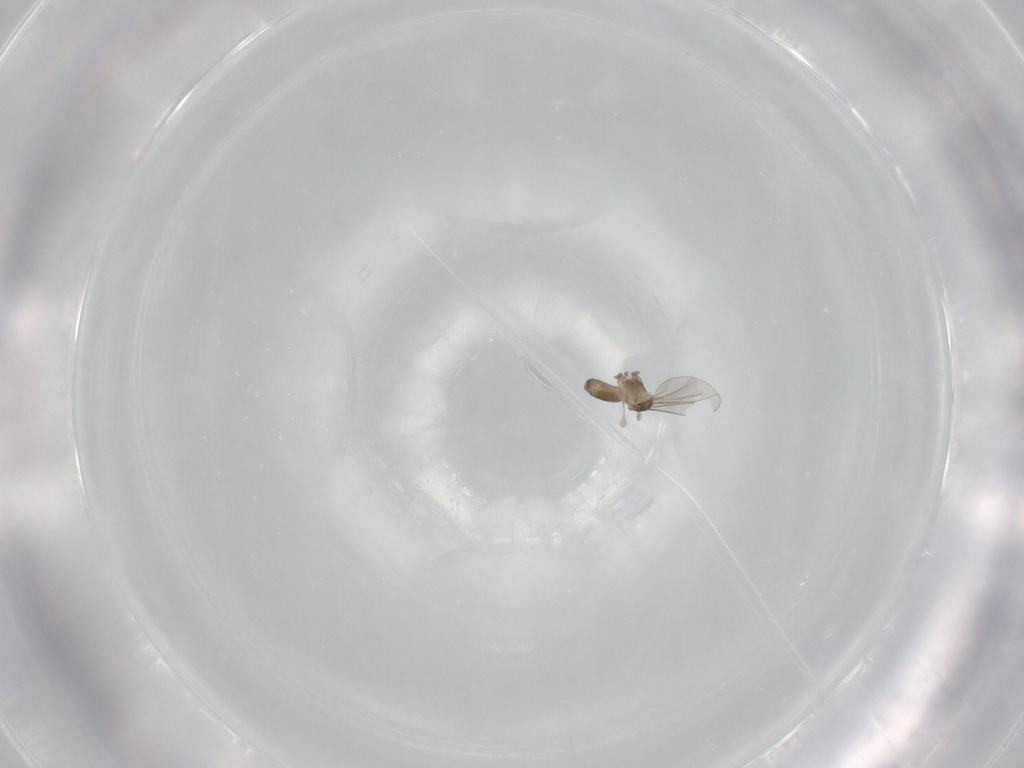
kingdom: Animalia
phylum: Arthropoda
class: Insecta
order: Diptera
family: Cecidomyiidae
